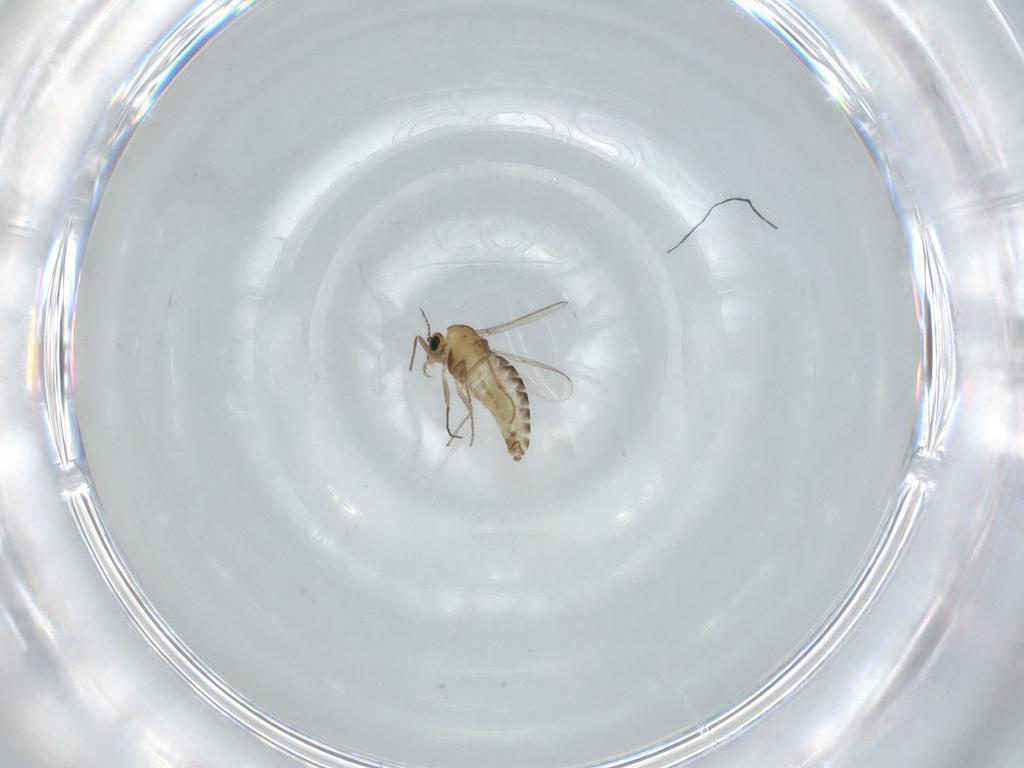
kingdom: Animalia
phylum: Arthropoda
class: Insecta
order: Diptera
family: Chironomidae
